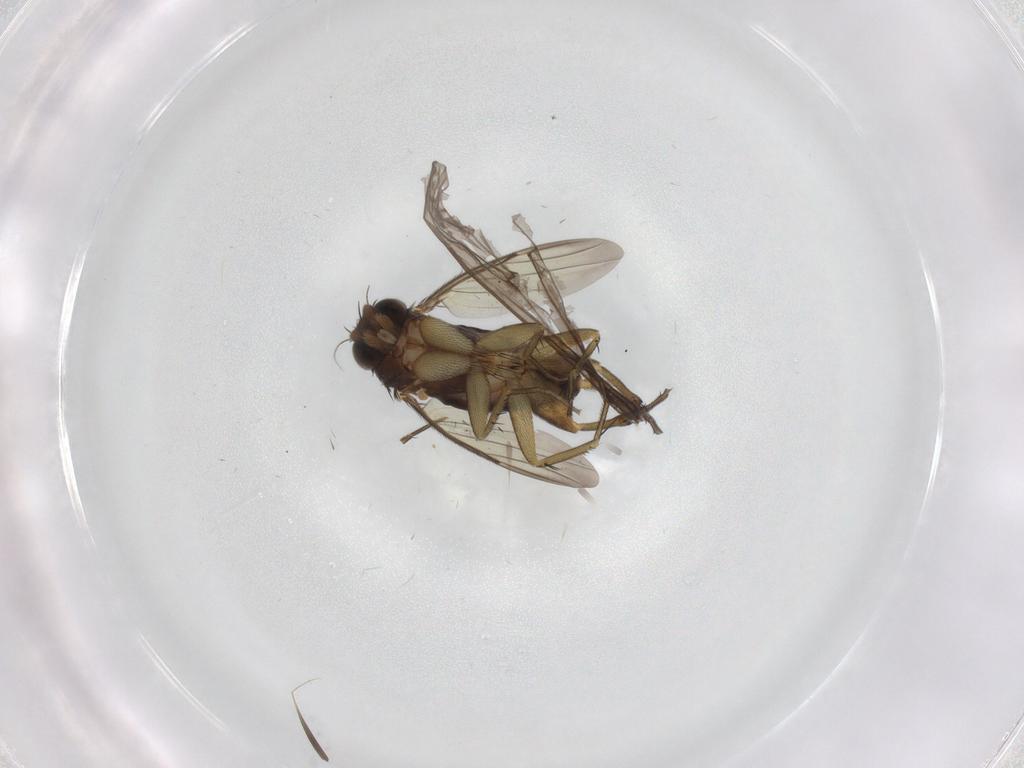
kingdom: Animalia
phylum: Arthropoda
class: Insecta
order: Diptera
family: Phoridae
